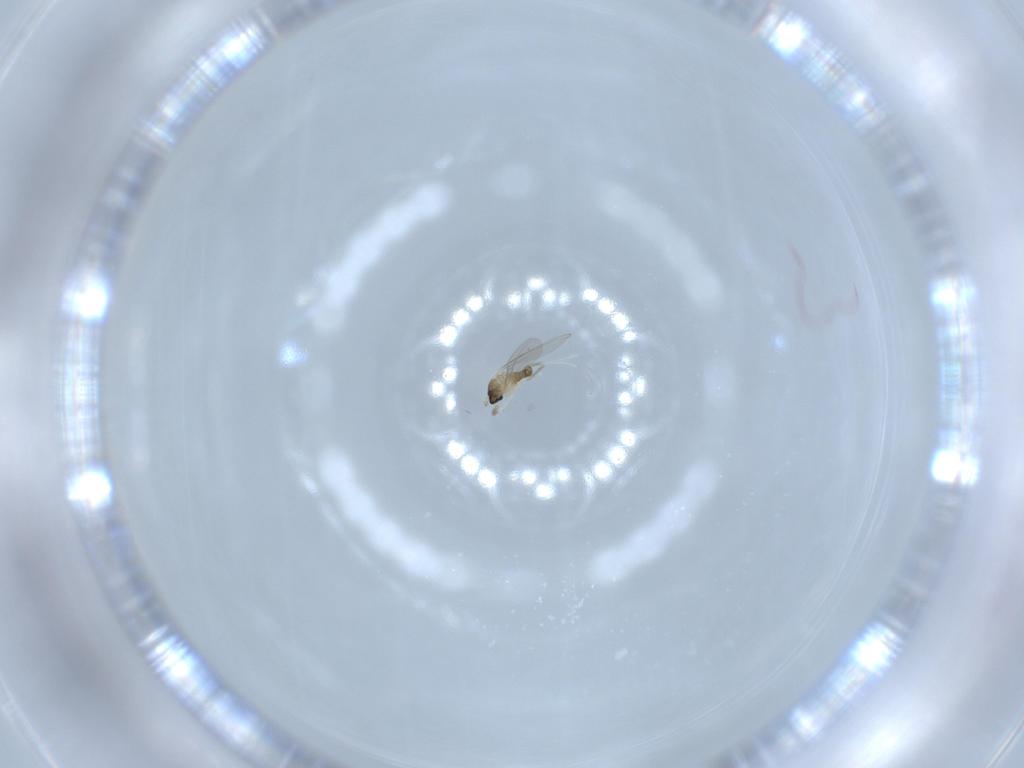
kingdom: Animalia
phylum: Arthropoda
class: Insecta
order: Diptera
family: Cecidomyiidae
